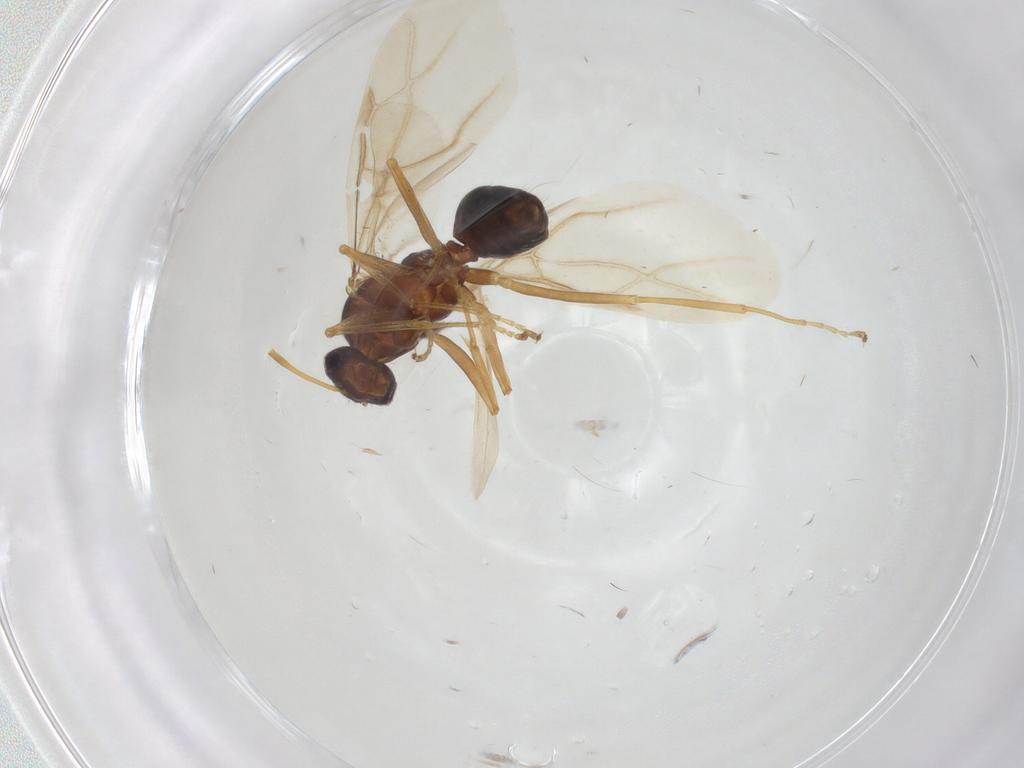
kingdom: Animalia
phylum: Arthropoda
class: Insecta
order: Hymenoptera
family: Formicidae
